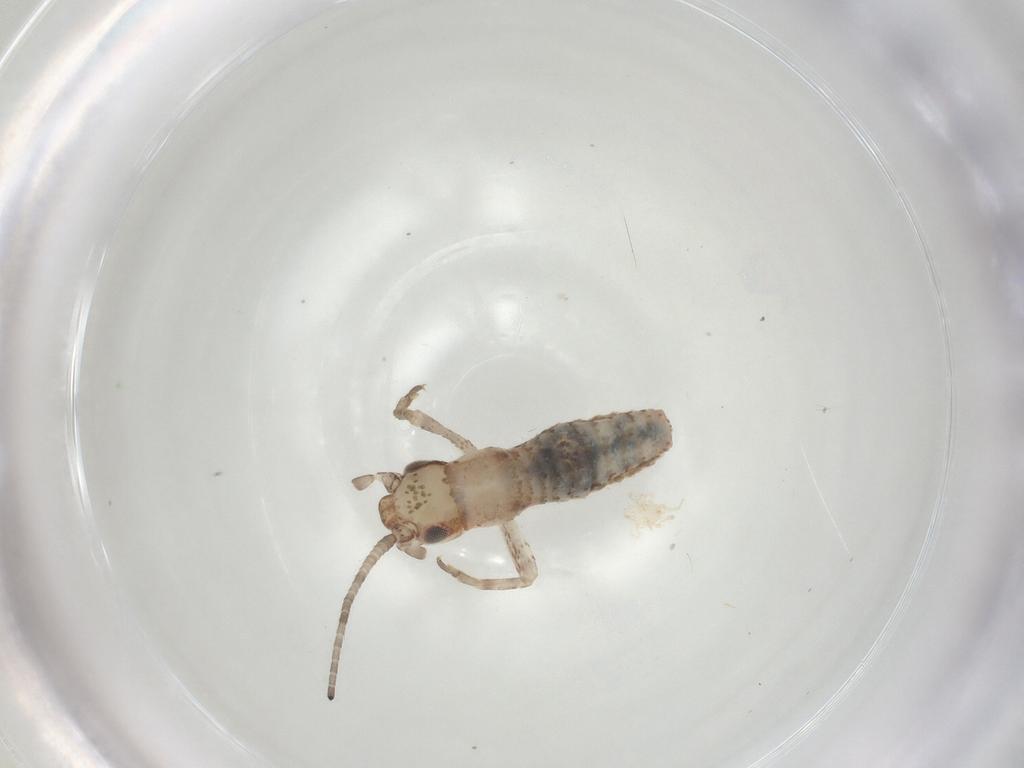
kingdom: Animalia
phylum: Arthropoda
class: Insecta
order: Orthoptera
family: Mogoplistidae
